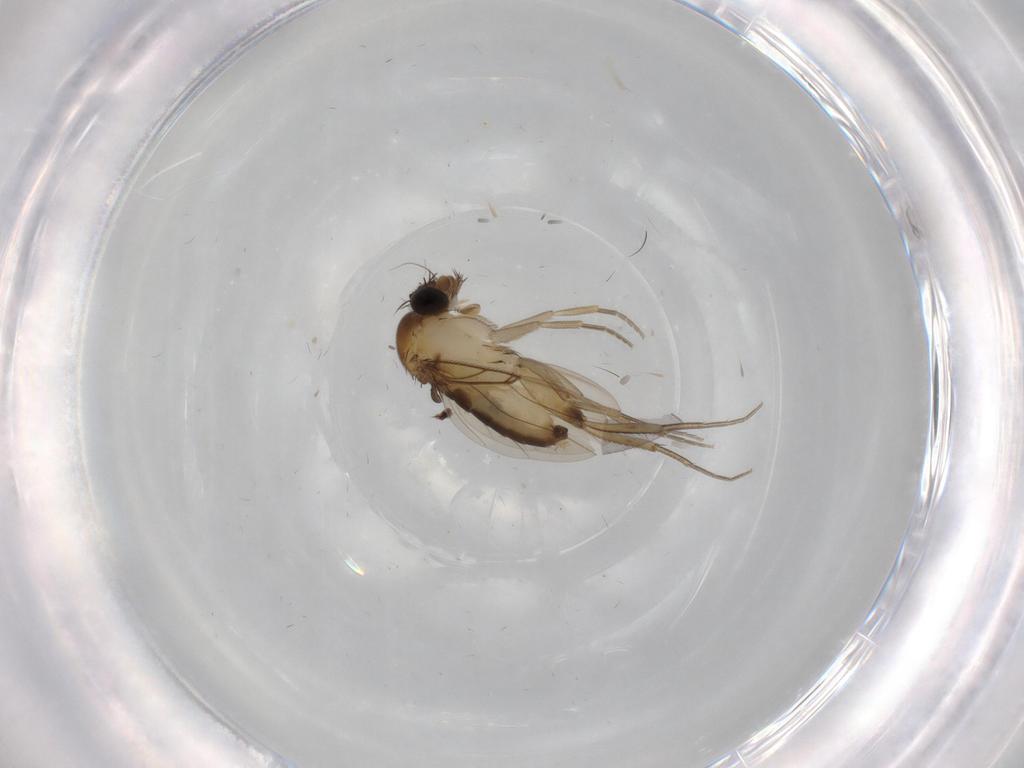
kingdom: Animalia
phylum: Arthropoda
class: Insecta
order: Diptera
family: Phoridae
